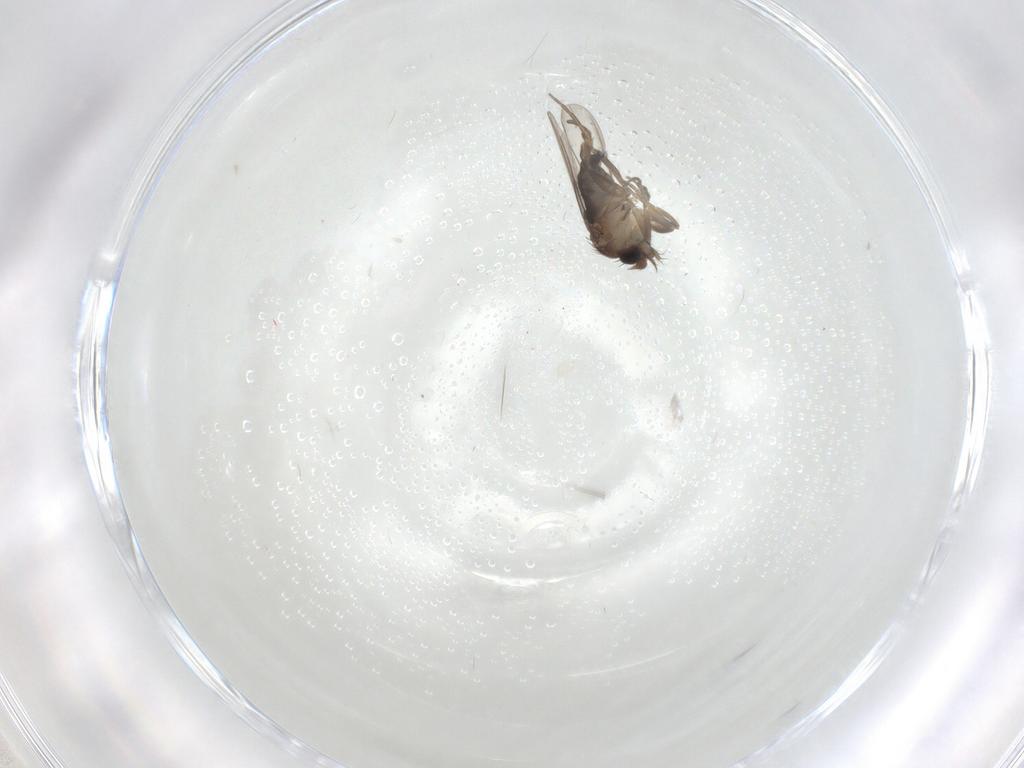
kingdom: Animalia
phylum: Arthropoda
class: Insecta
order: Diptera
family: Phoridae
